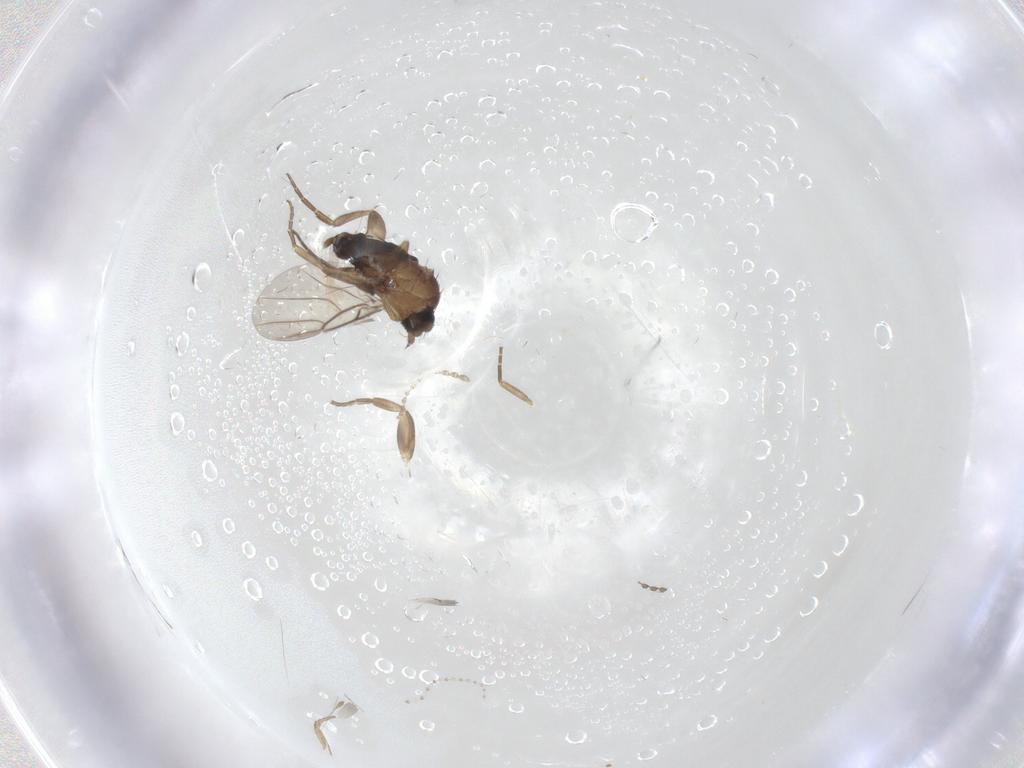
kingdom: Animalia
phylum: Arthropoda
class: Insecta
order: Diptera
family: Cecidomyiidae
